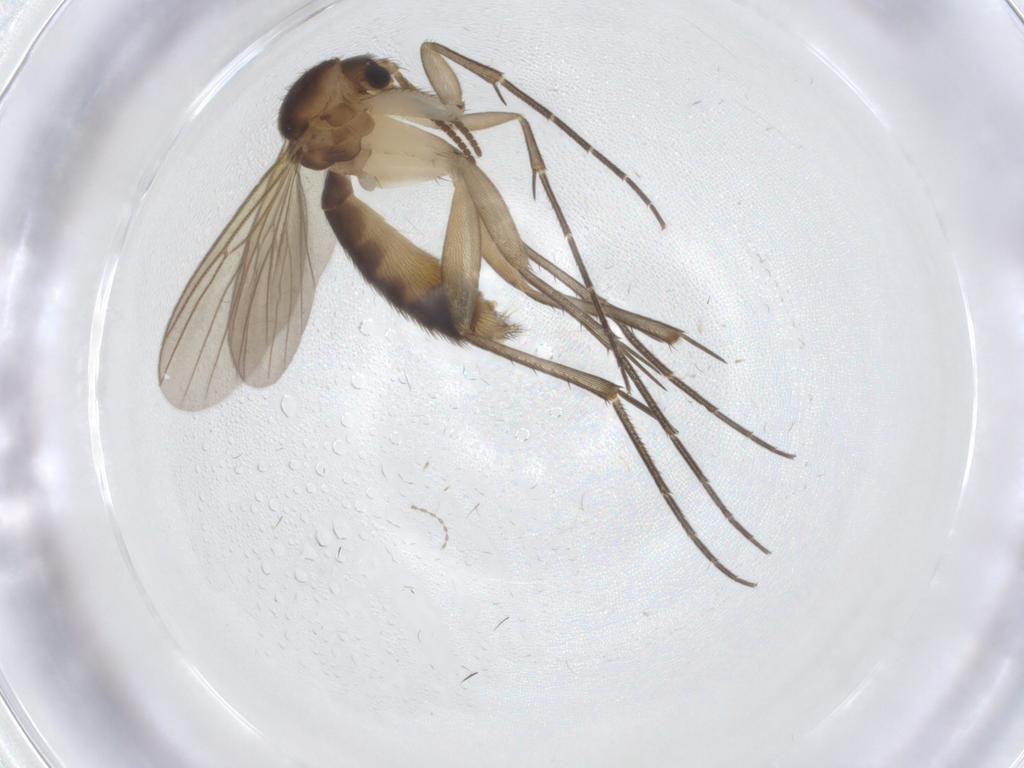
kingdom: Animalia
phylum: Arthropoda
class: Insecta
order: Diptera
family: Mycetophilidae
